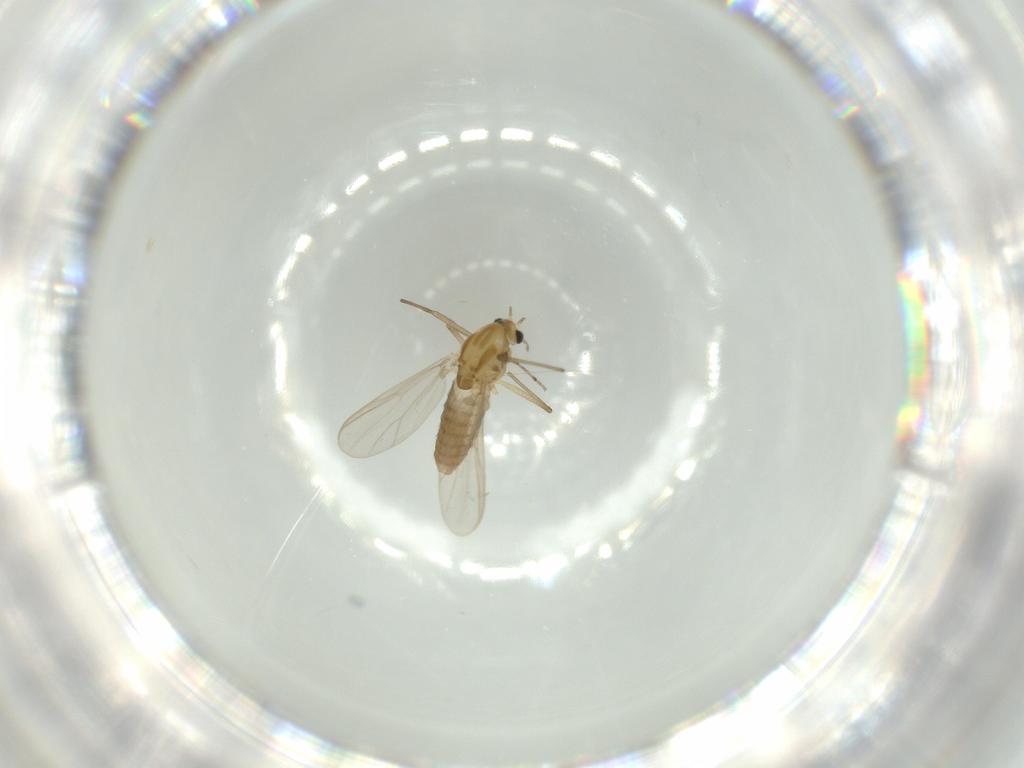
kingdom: Animalia
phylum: Arthropoda
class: Insecta
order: Diptera
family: Chironomidae
